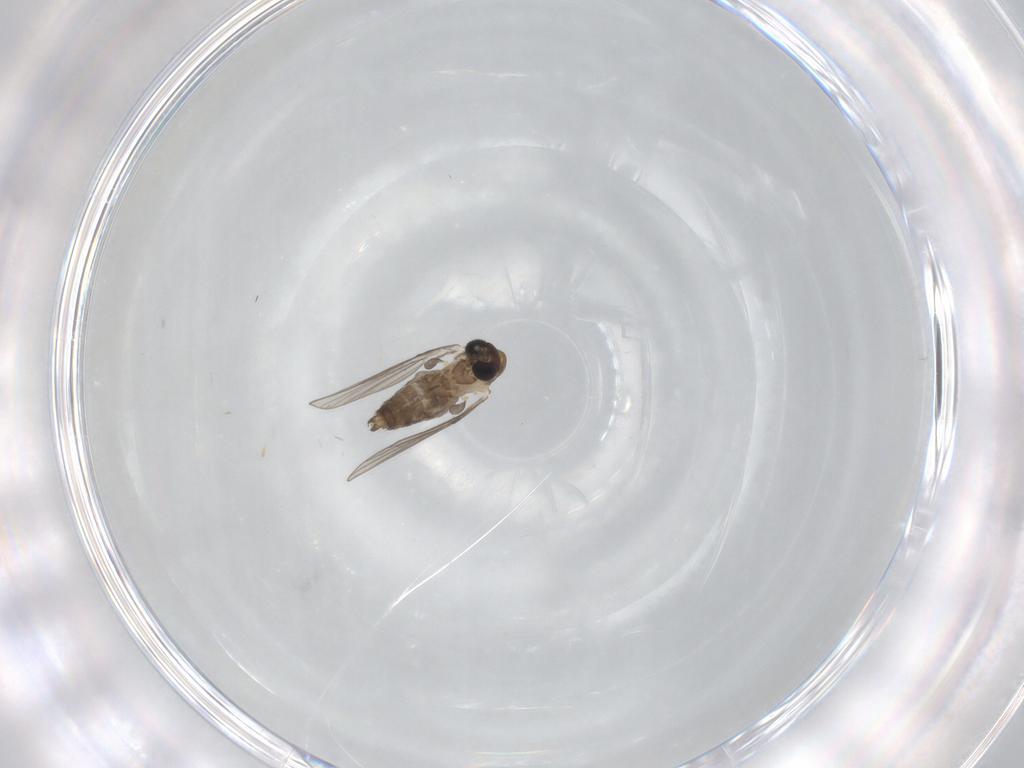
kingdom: Animalia
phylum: Arthropoda
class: Insecta
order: Diptera
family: Psychodidae
